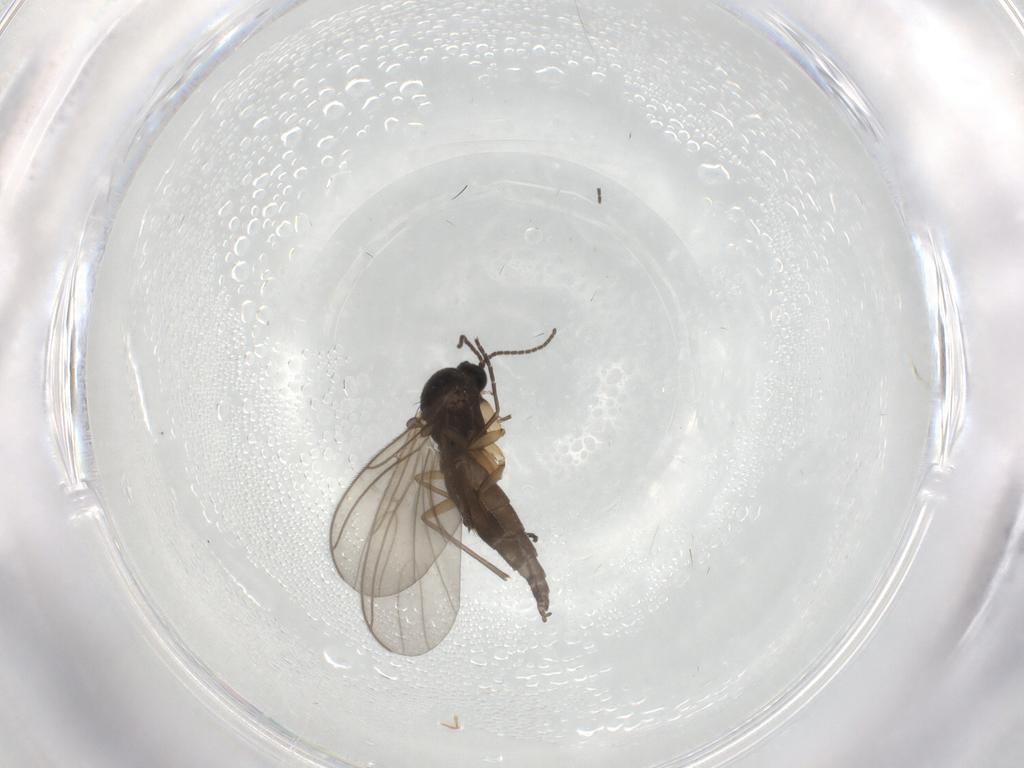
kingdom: Animalia
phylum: Arthropoda
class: Insecta
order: Diptera
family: Sciaridae
